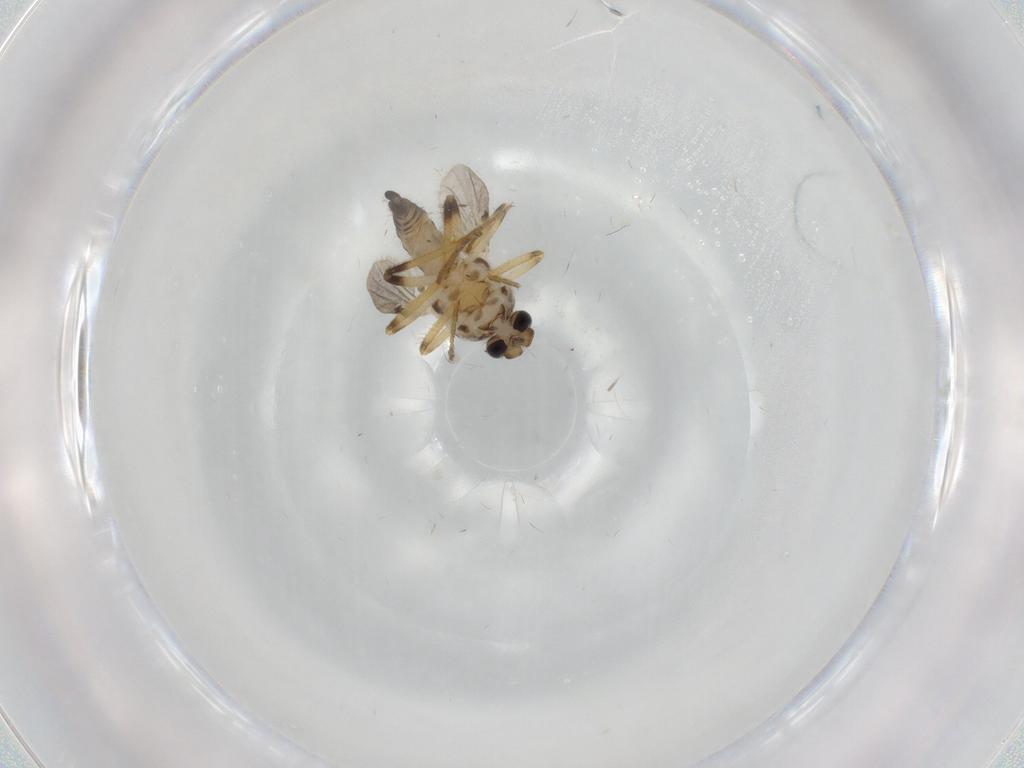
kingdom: Animalia
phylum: Arthropoda
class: Insecta
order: Diptera
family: Ceratopogonidae
